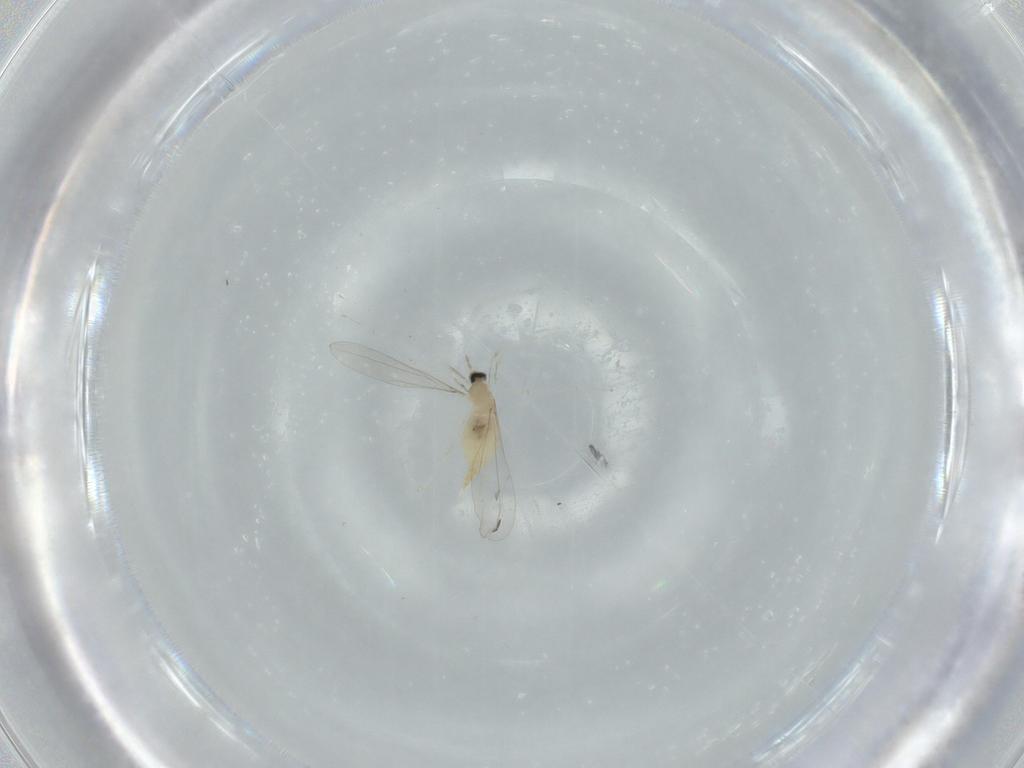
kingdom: Animalia
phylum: Arthropoda
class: Insecta
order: Diptera
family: Cecidomyiidae
